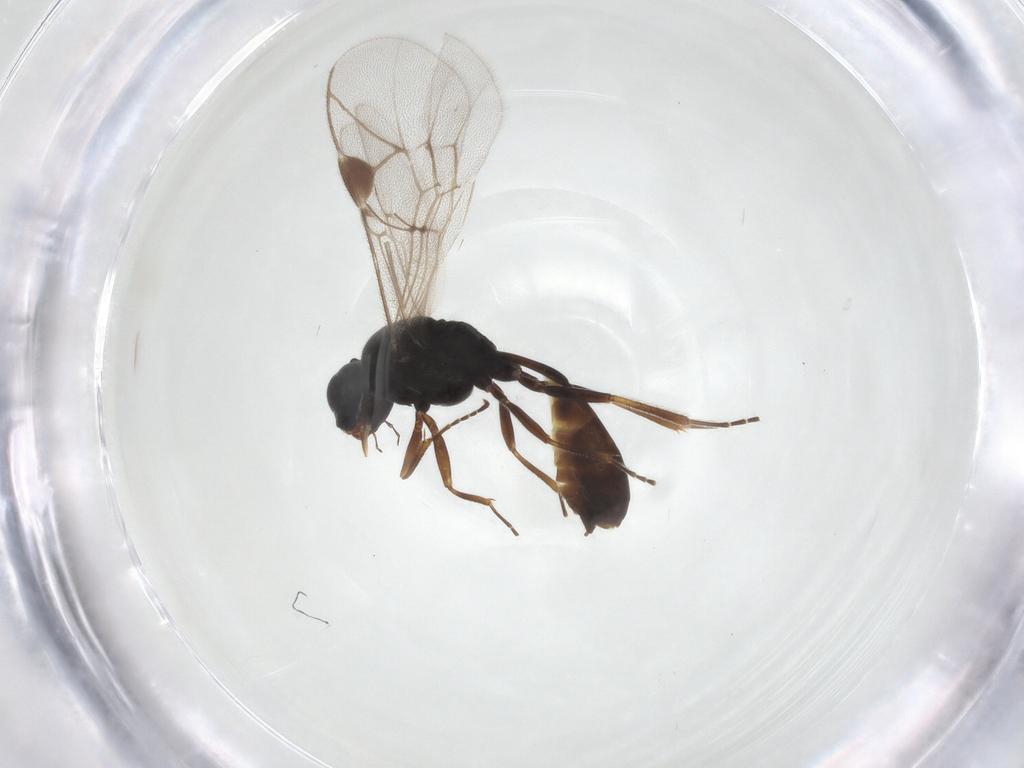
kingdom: Animalia
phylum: Arthropoda
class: Insecta
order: Hymenoptera
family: Ichneumonidae
